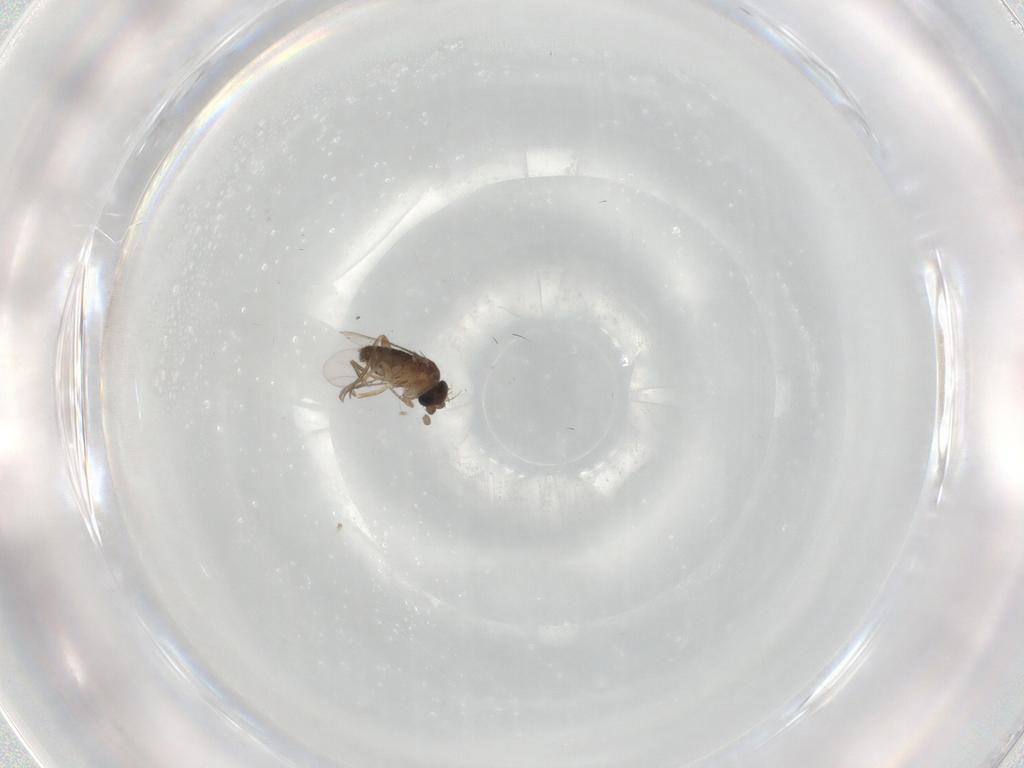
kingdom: Animalia
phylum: Arthropoda
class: Insecta
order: Diptera
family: Phoridae
